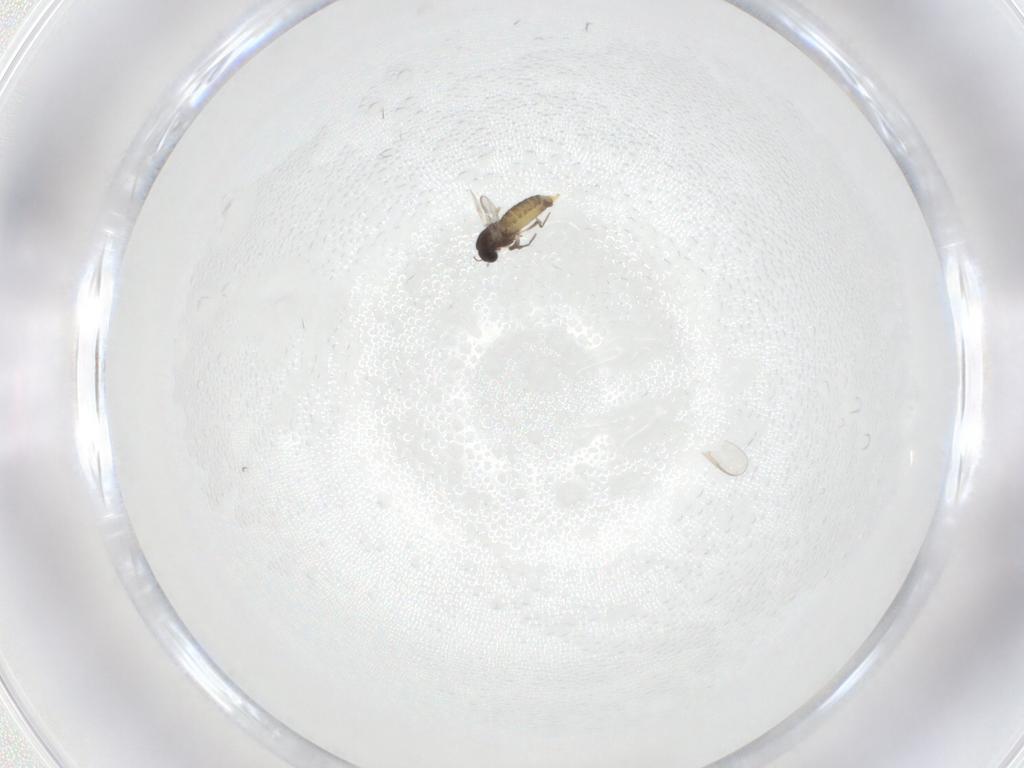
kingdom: Animalia
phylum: Arthropoda
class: Insecta
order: Diptera
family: Chironomidae
